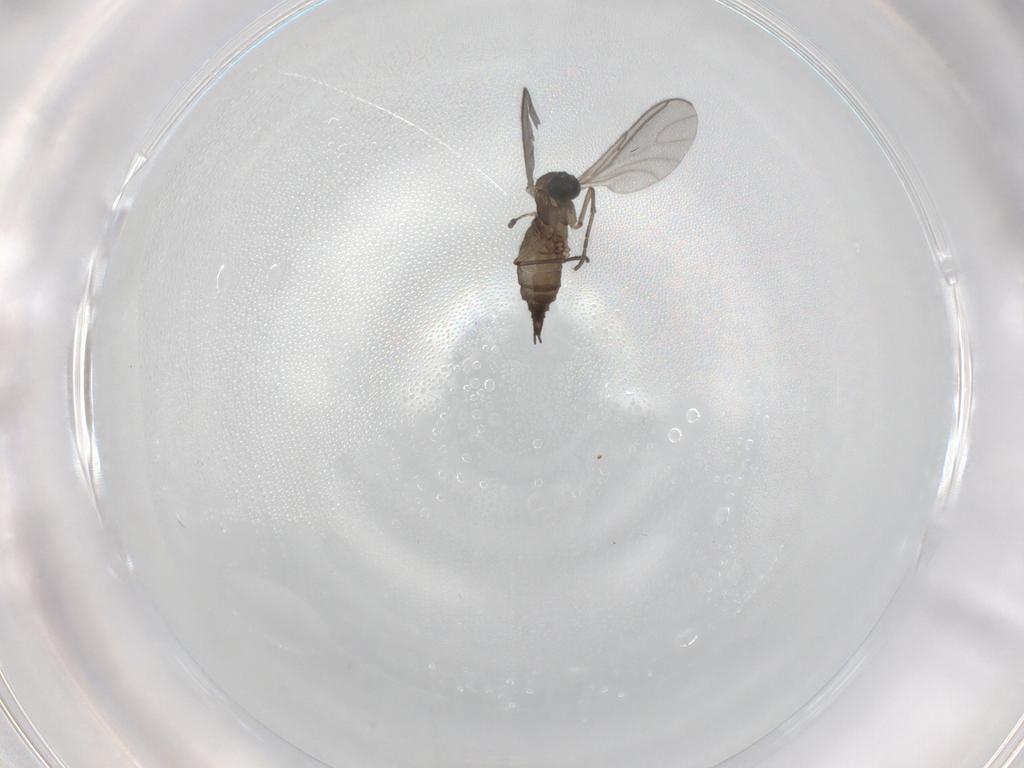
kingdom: Animalia
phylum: Arthropoda
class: Insecta
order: Diptera
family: Sciaridae
